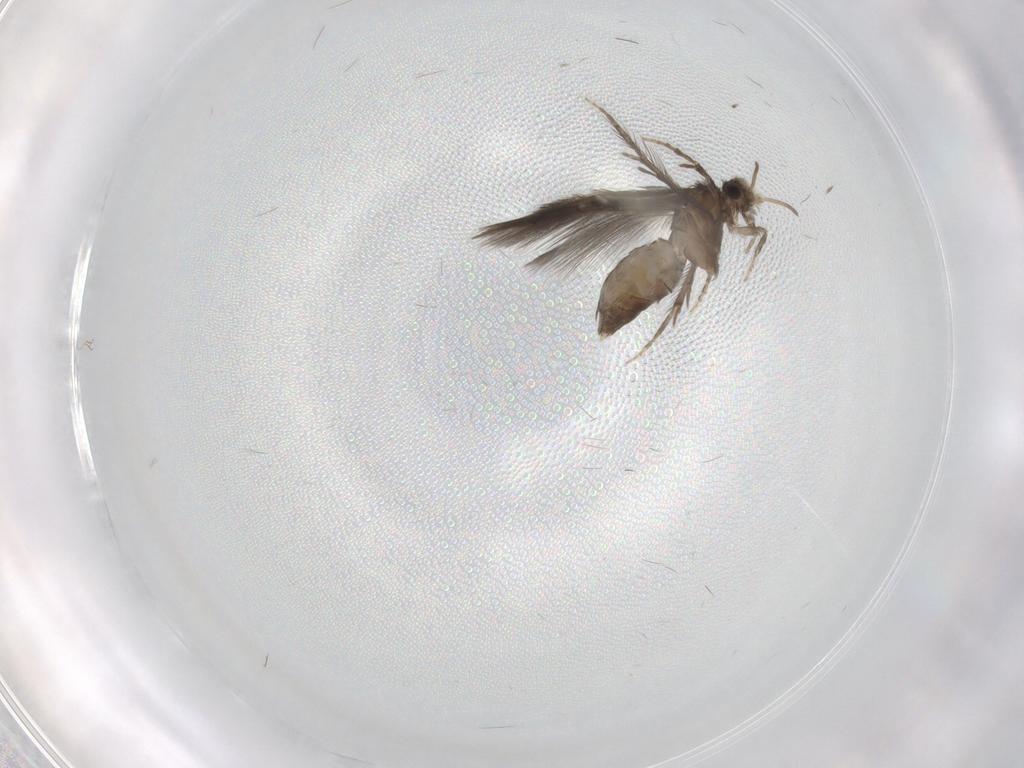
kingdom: Animalia
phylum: Arthropoda
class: Insecta
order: Trichoptera
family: Hydroptilidae
